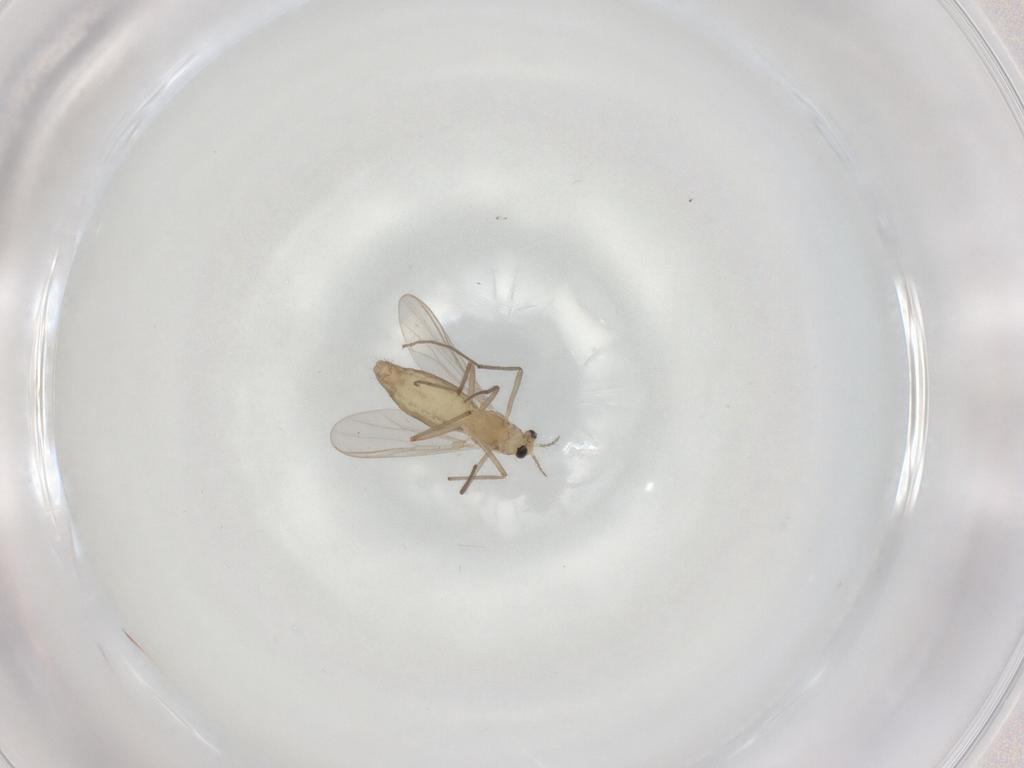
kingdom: Animalia
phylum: Arthropoda
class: Insecta
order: Diptera
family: Chironomidae
